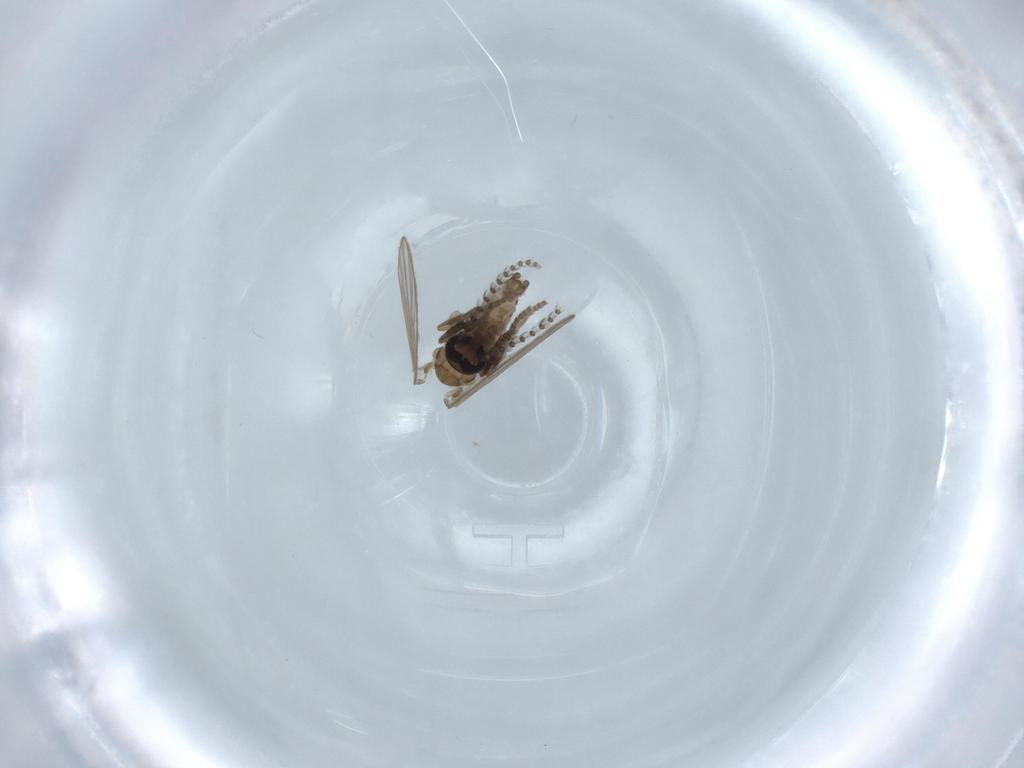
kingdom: Animalia
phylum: Arthropoda
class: Insecta
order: Diptera
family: Psychodidae
